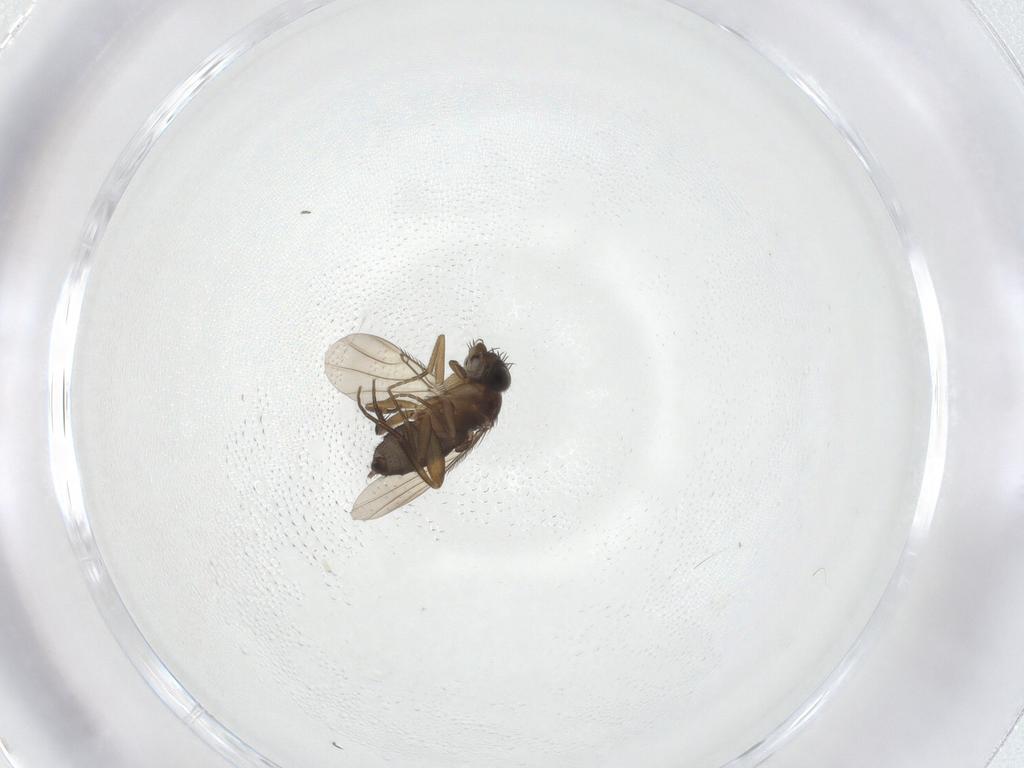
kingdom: Animalia
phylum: Arthropoda
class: Insecta
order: Diptera
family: Phoridae
